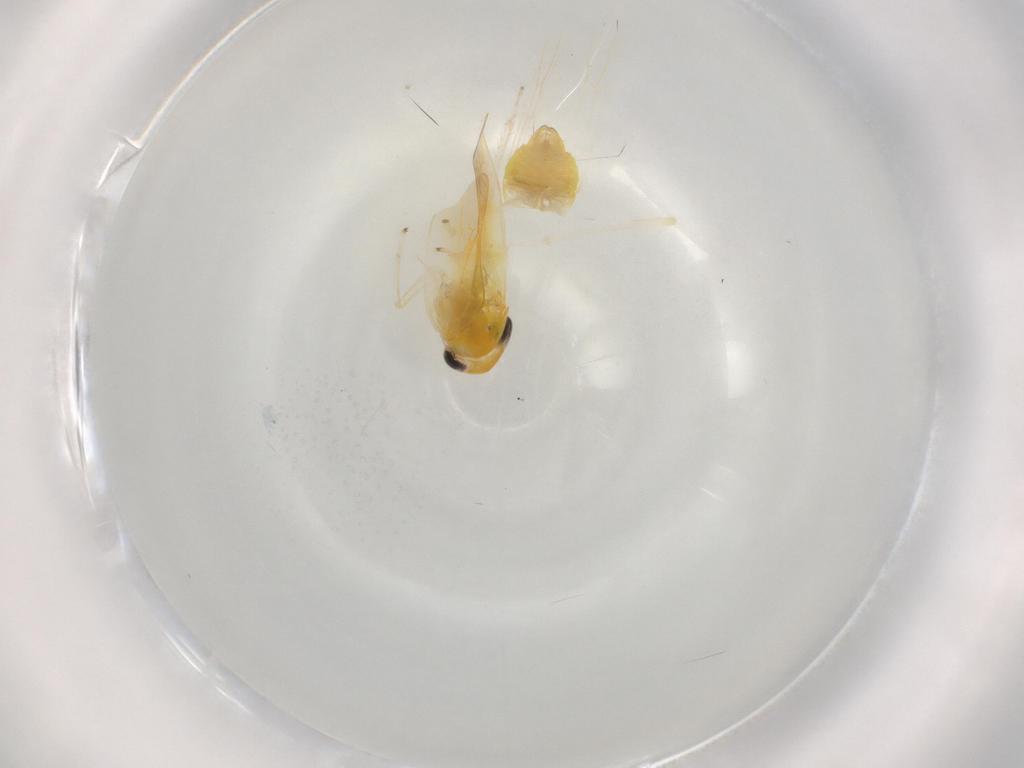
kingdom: Animalia
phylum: Arthropoda
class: Insecta
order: Hemiptera
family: Cicadellidae
